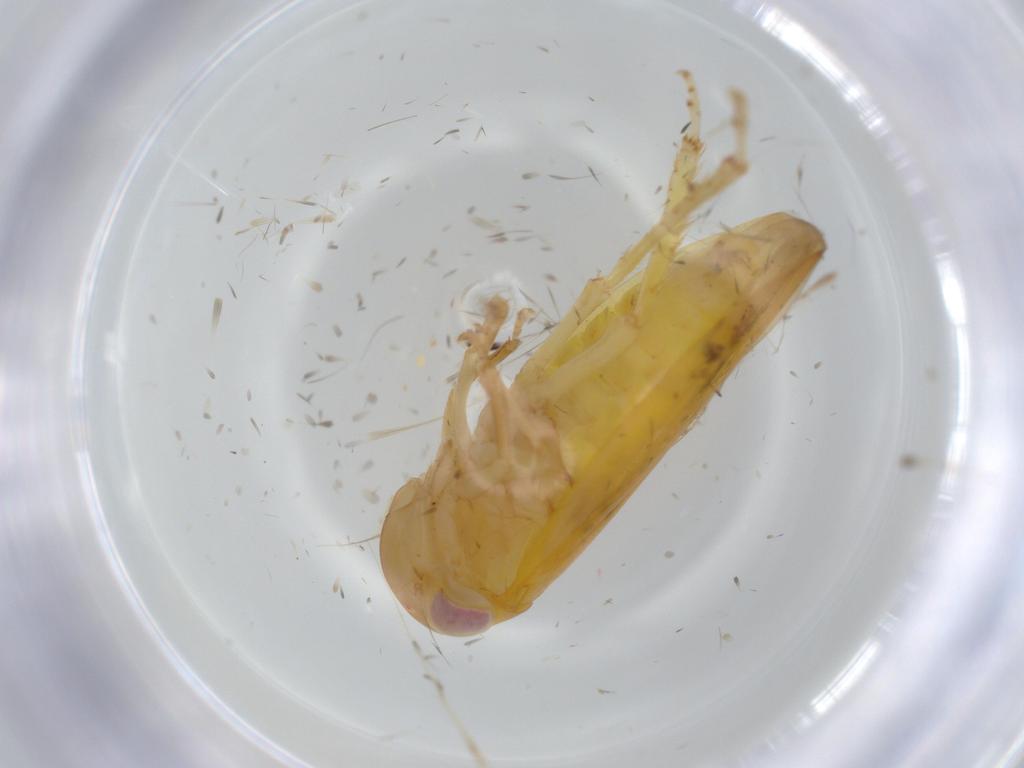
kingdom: Animalia
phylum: Arthropoda
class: Insecta
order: Hemiptera
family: Cicadellidae
